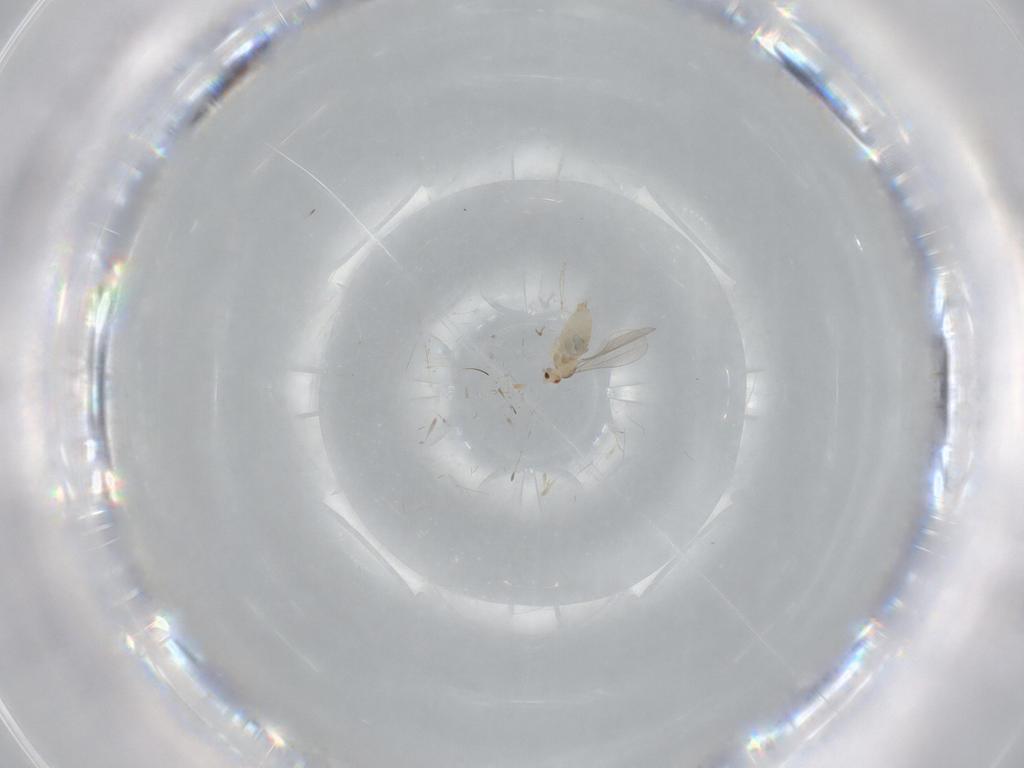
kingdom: Animalia
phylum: Arthropoda
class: Insecta
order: Diptera
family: Cecidomyiidae
